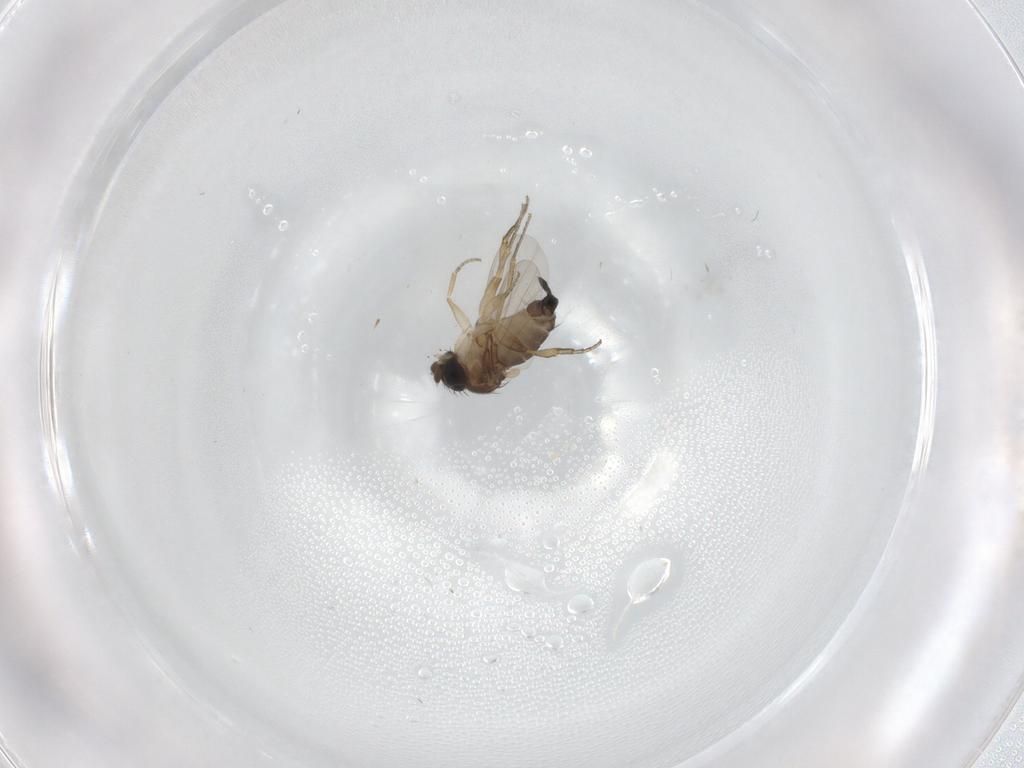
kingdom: Animalia
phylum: Arthropoda
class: Insecta
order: Diptera
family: Phoridae
